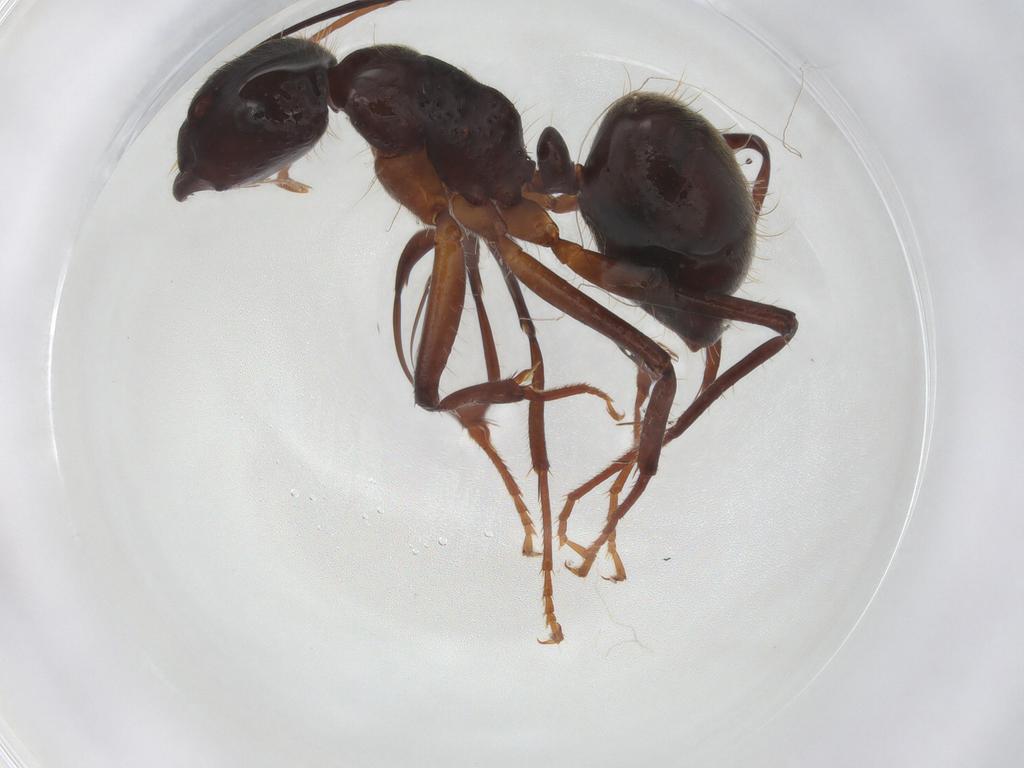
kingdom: Animalia
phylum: Arthropoda
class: Insecta
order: Hymenoptera
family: Formicidae
